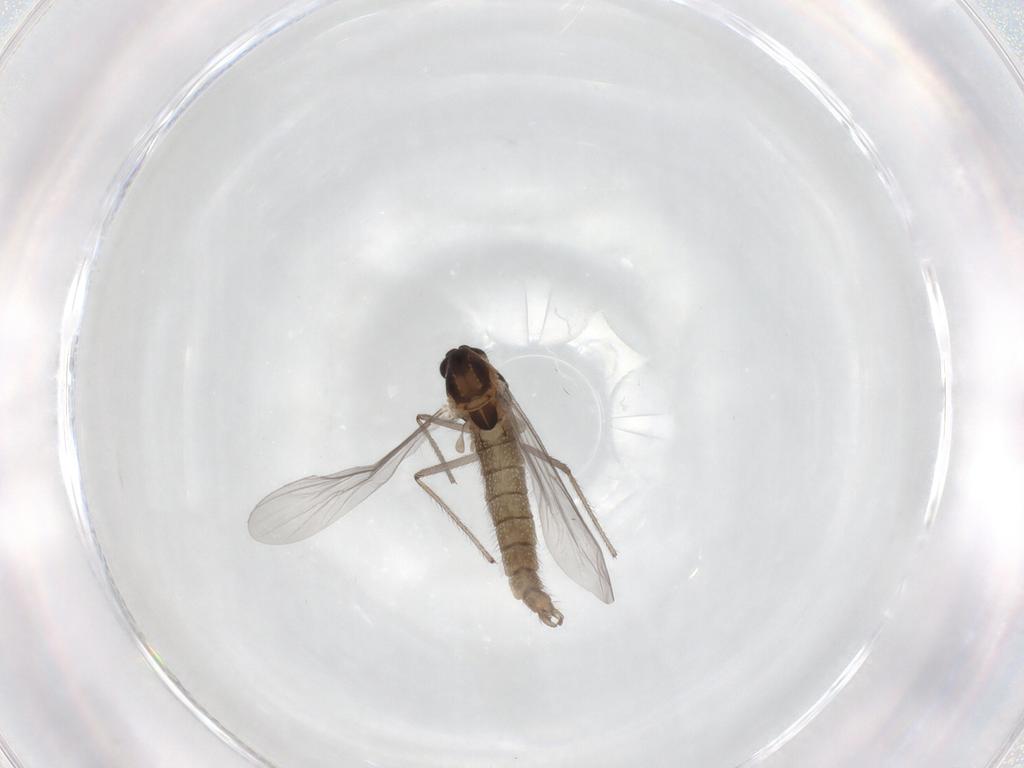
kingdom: Animalia
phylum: Arthropoda
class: Insecta
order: Diptera
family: Chironomidae
